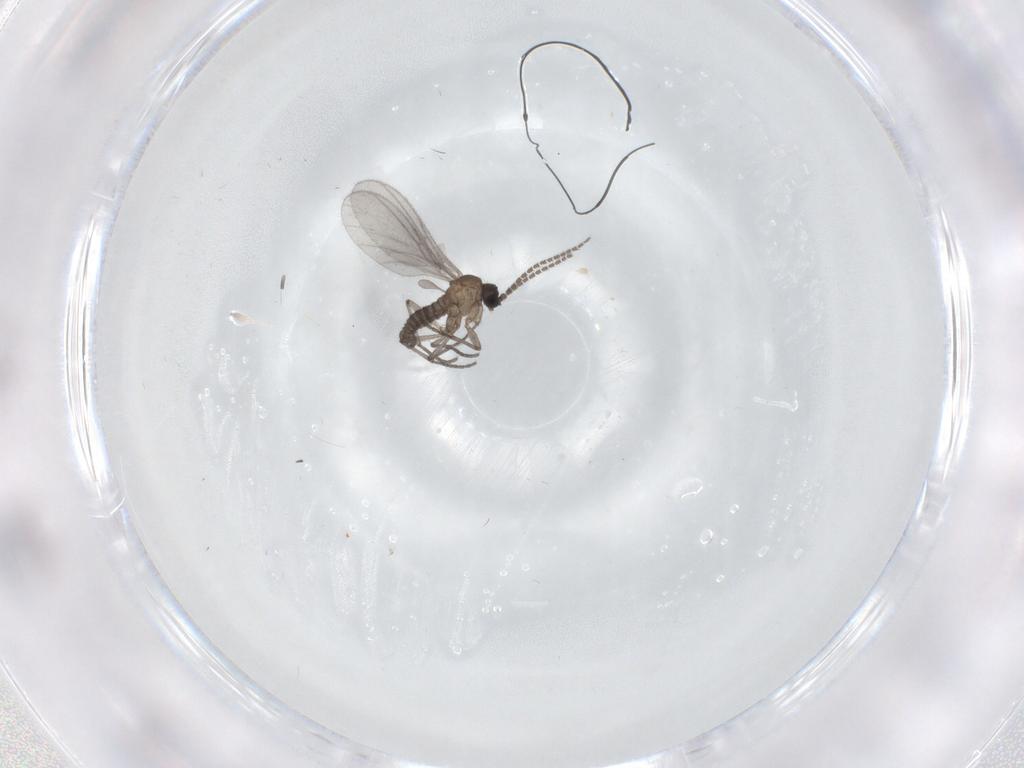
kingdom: Animalia
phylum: Arthropoda
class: Insecta
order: Diptera
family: Sciaridae
